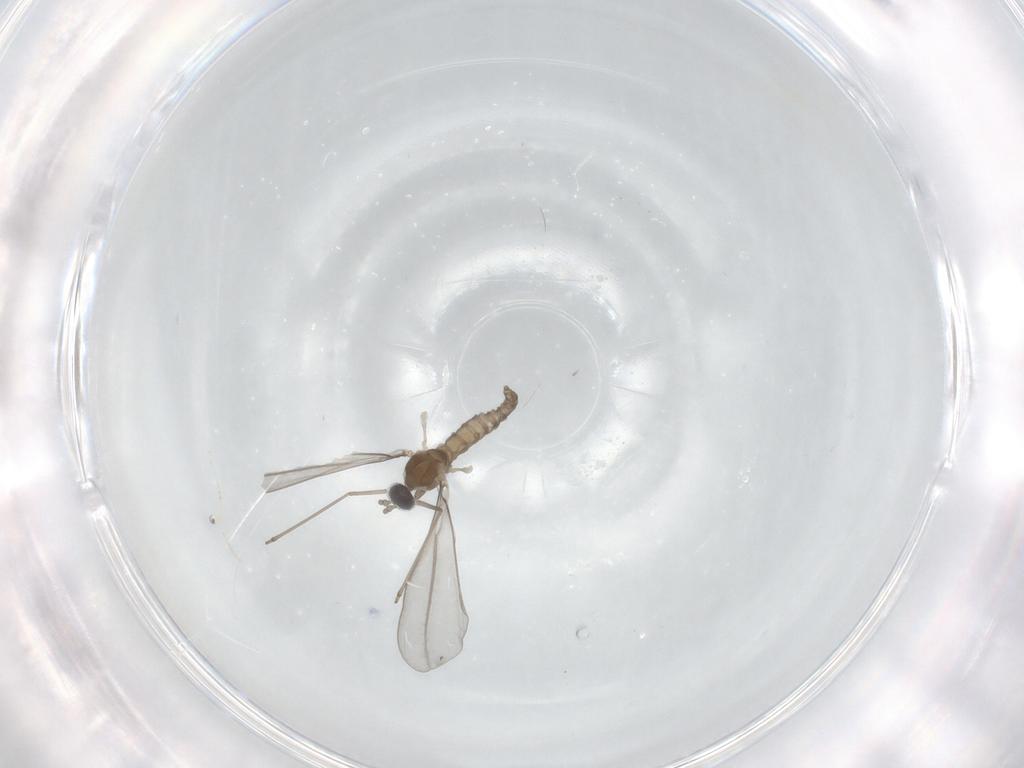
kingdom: Animalia
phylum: Arthropoda
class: Insecta
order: Diptera
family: Cecidomyiidae
